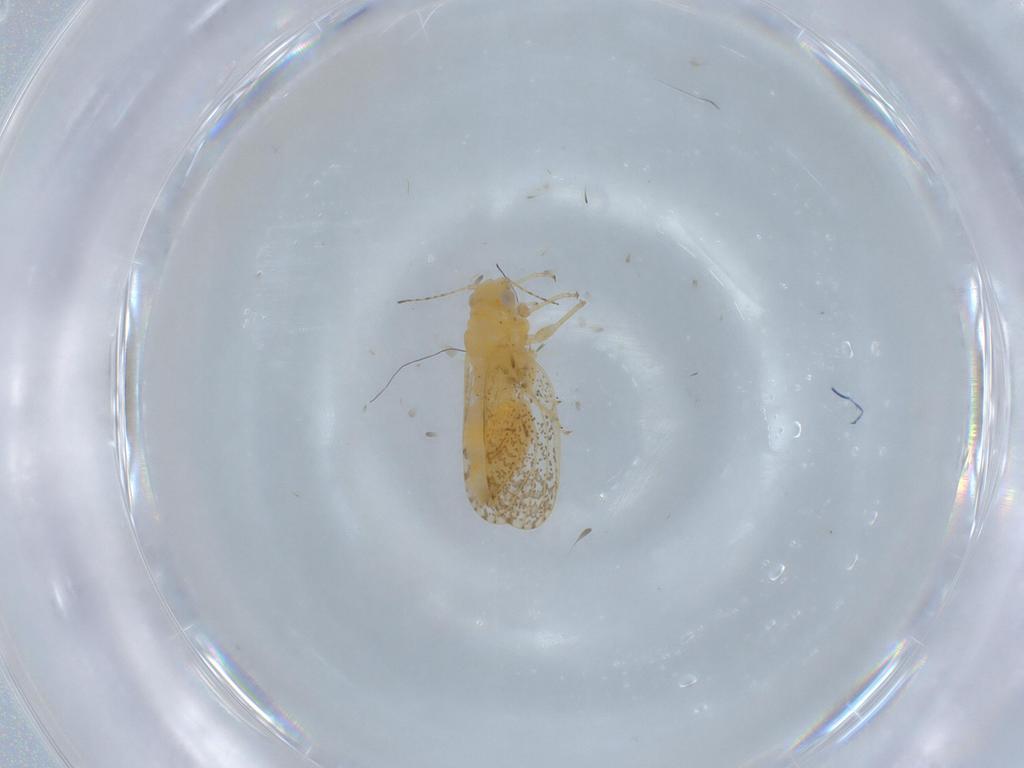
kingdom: Animalia
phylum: Arthropoda
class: Insecta
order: Hemiptera
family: Psyllidae
